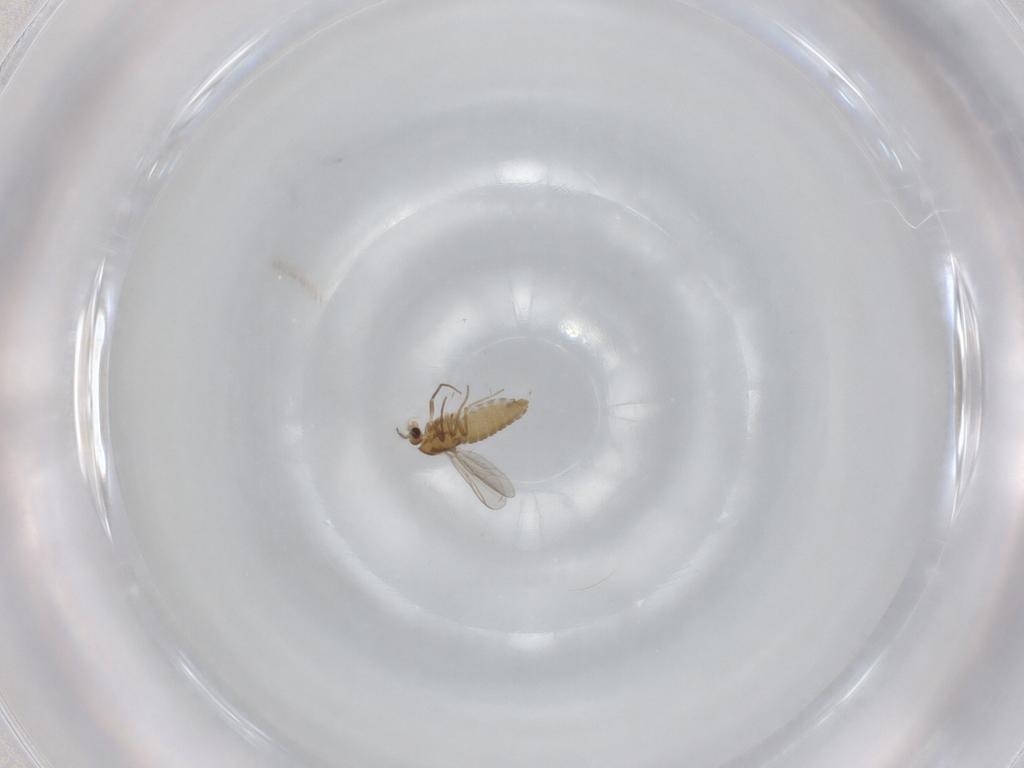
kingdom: Animalia
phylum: Arthropoda
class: Insecta
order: Diptera
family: Chironomidae
